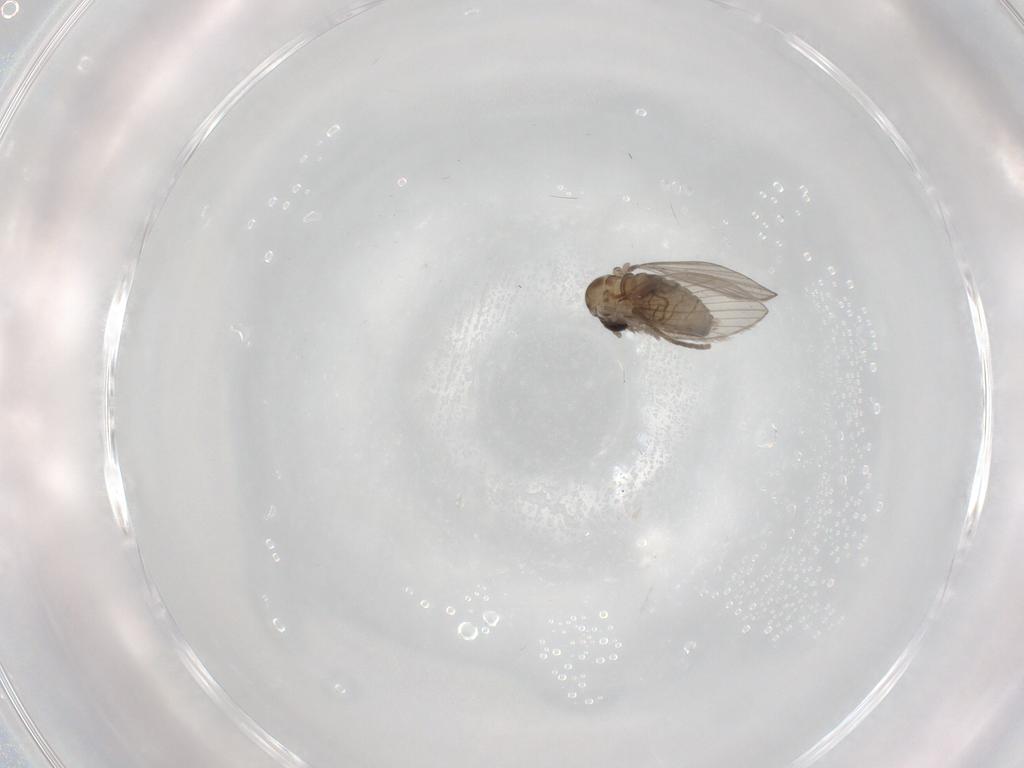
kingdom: Animalia
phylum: Arthropoda
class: Insecta
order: Diptera
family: Psychodidae
